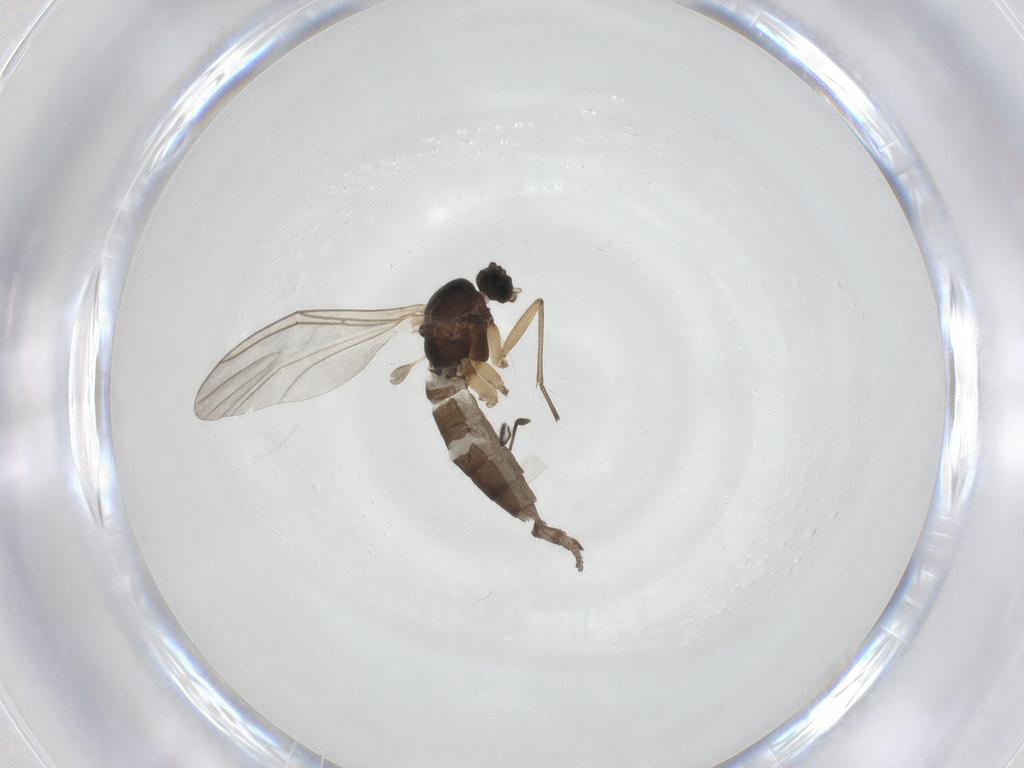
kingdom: Animalia
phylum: Arthropoda
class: Insecta
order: Diptera
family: Sciaridae
